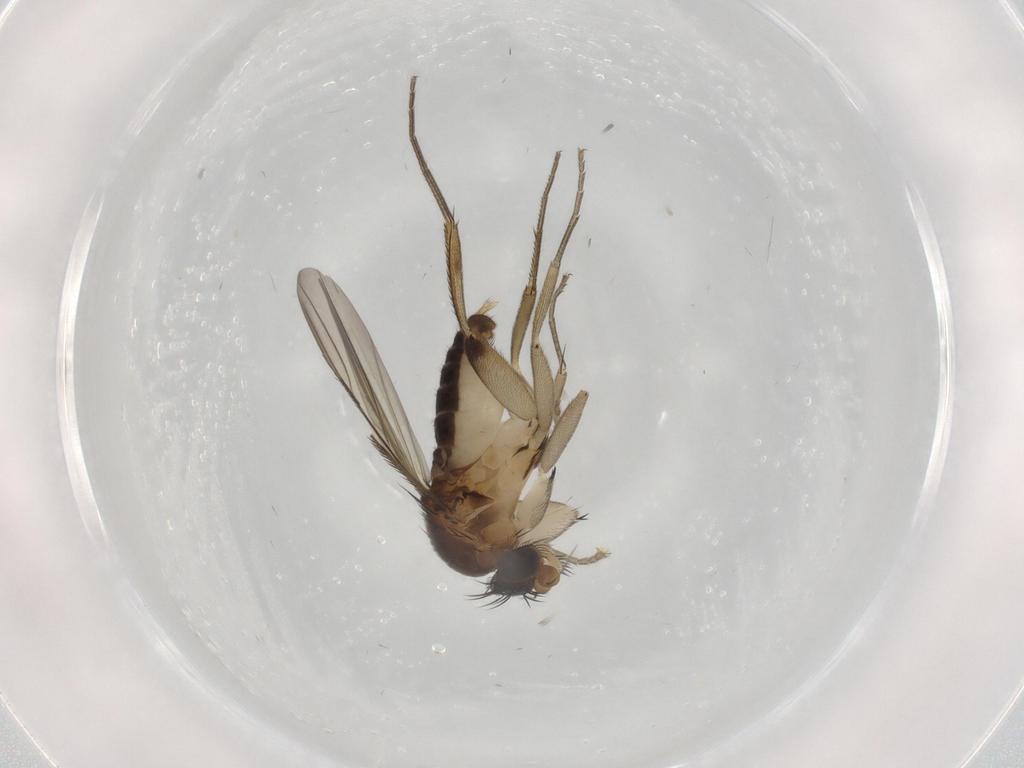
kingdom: Animalia
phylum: Arthropoda
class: Insecta
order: Diptera
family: Phoridae
